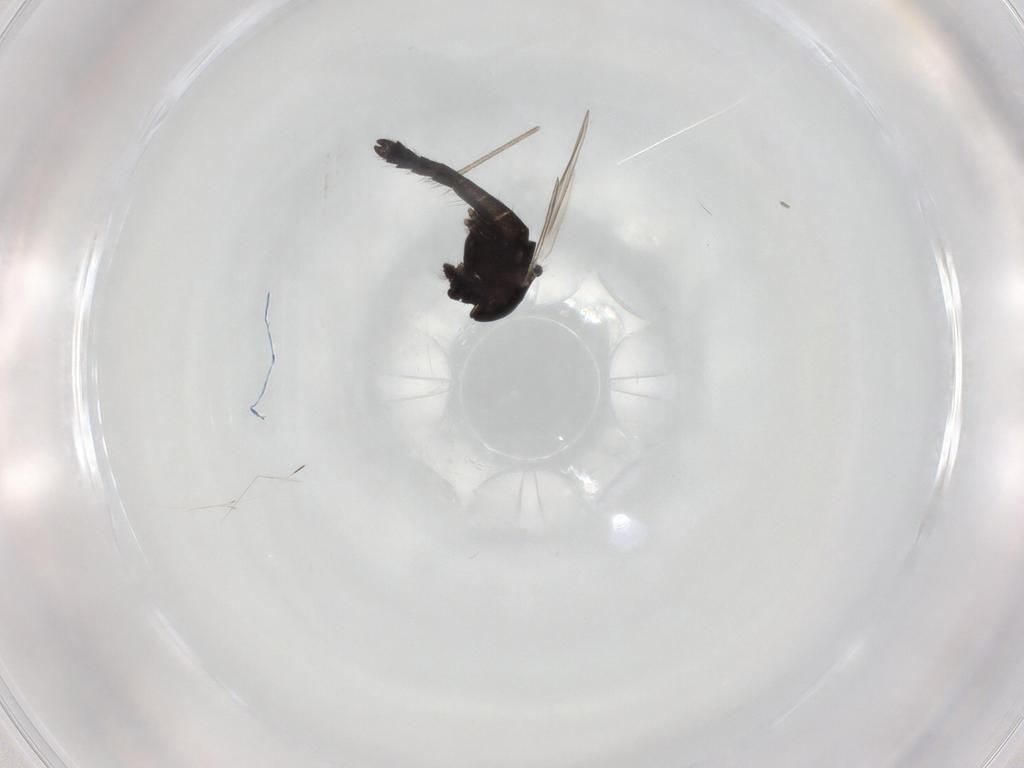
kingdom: Animalia
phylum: Arthropoda
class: Insecta
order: Diptera
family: Chironomidae
